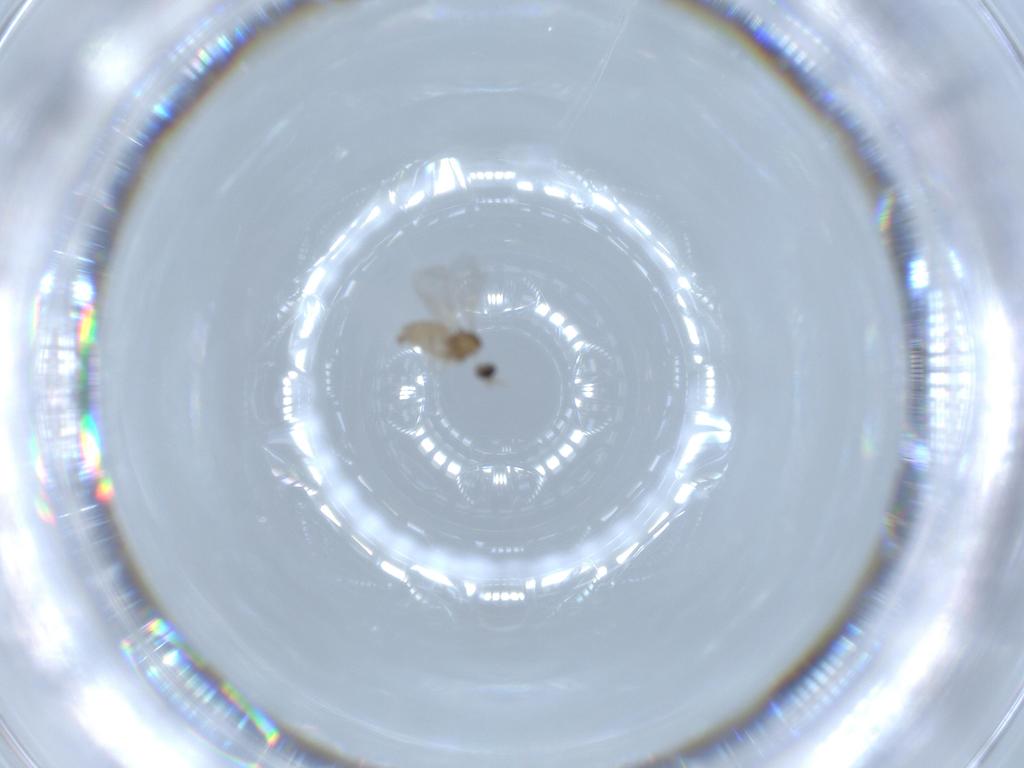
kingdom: Animalia
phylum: Arthropoda
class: Insecta
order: Diptera
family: Cecidomyiidae
